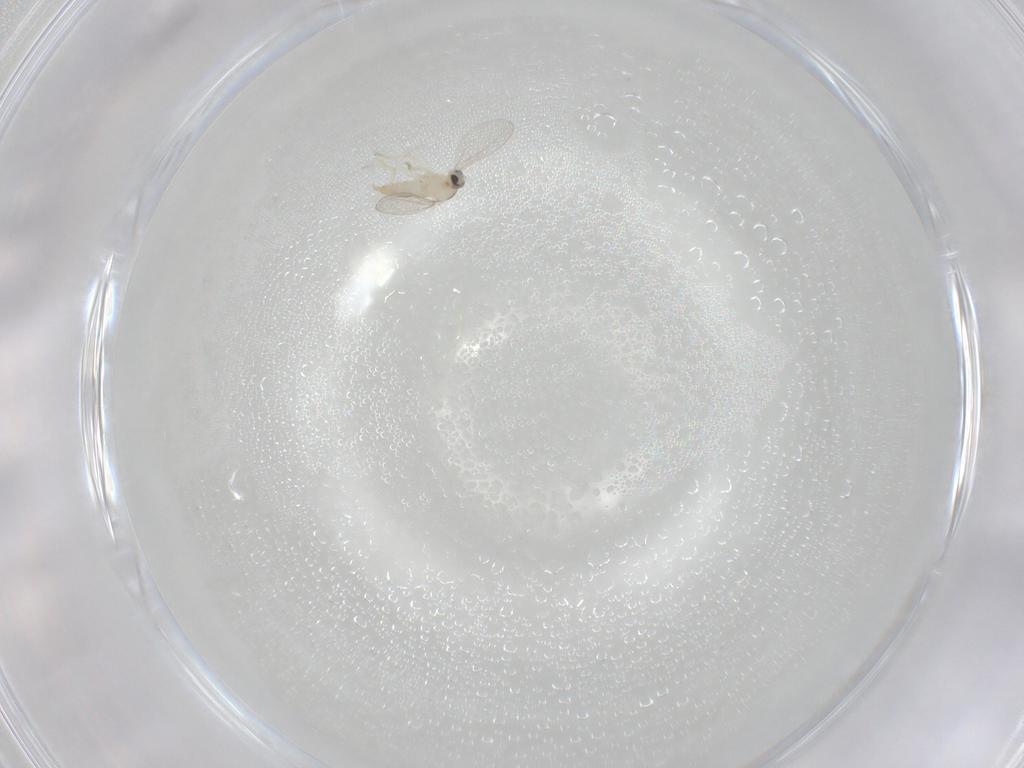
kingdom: Animalia
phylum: Arthropoda
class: Insecta
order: Diptera
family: Cecidomyiidae
